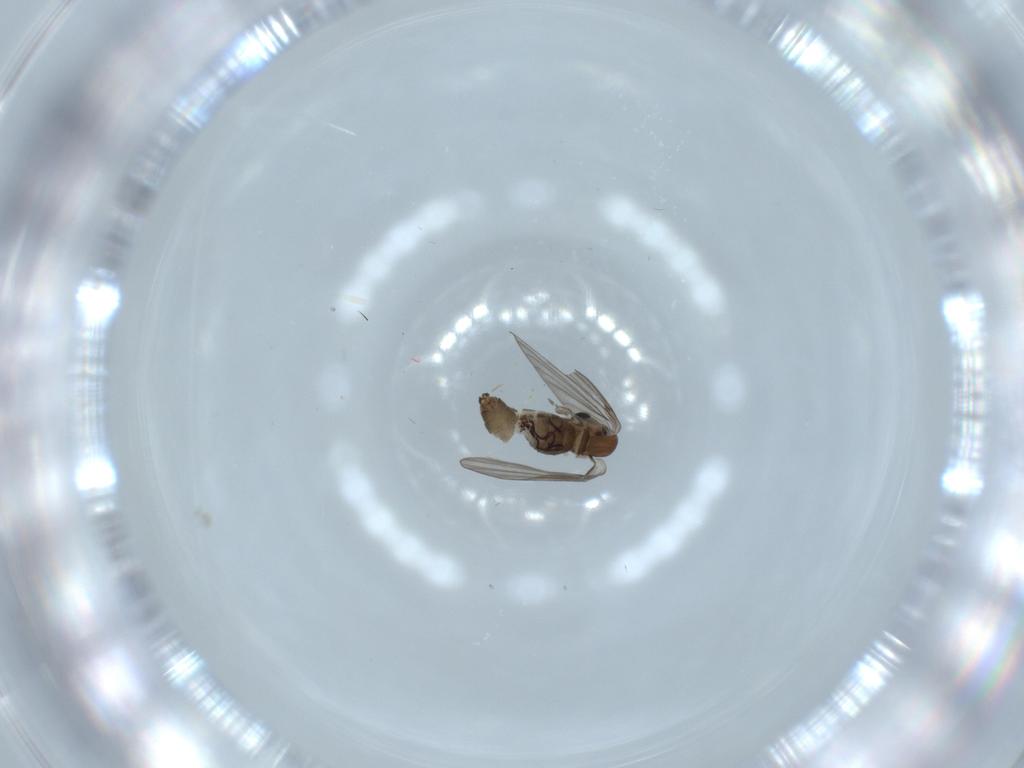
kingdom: Animalia
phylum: Arthropoda
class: Insecta
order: Diptera
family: Psychodidae
